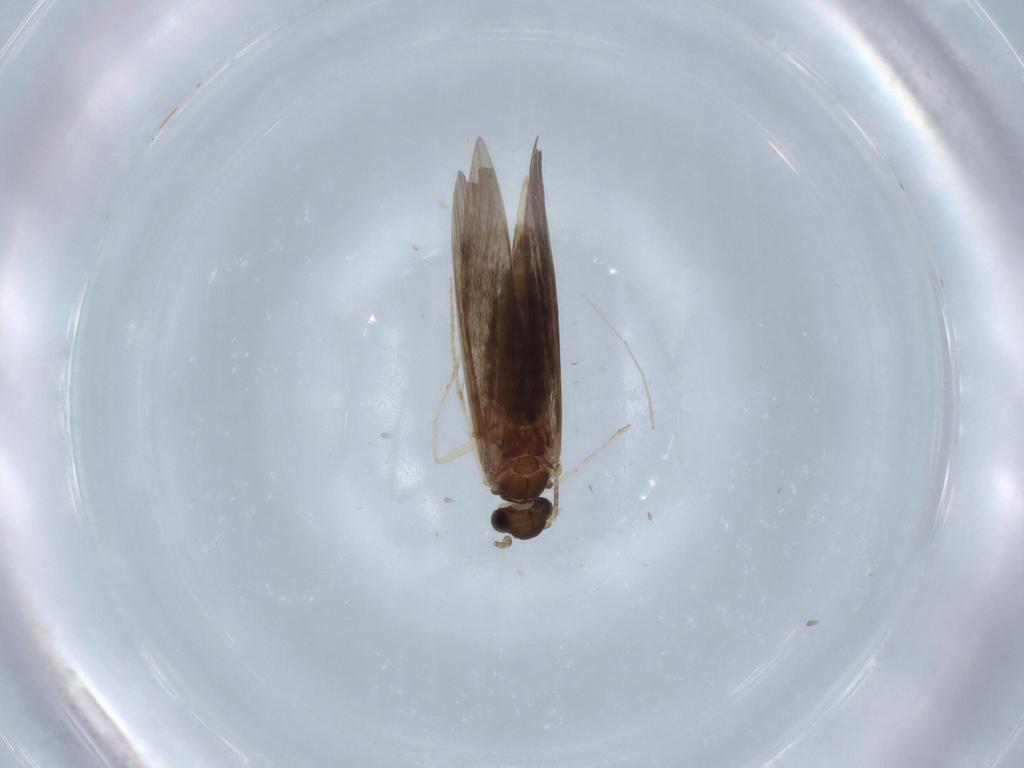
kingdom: Animalia
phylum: Arthropoda
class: Insecta
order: Trichoptera
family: Xiphocentronidae
